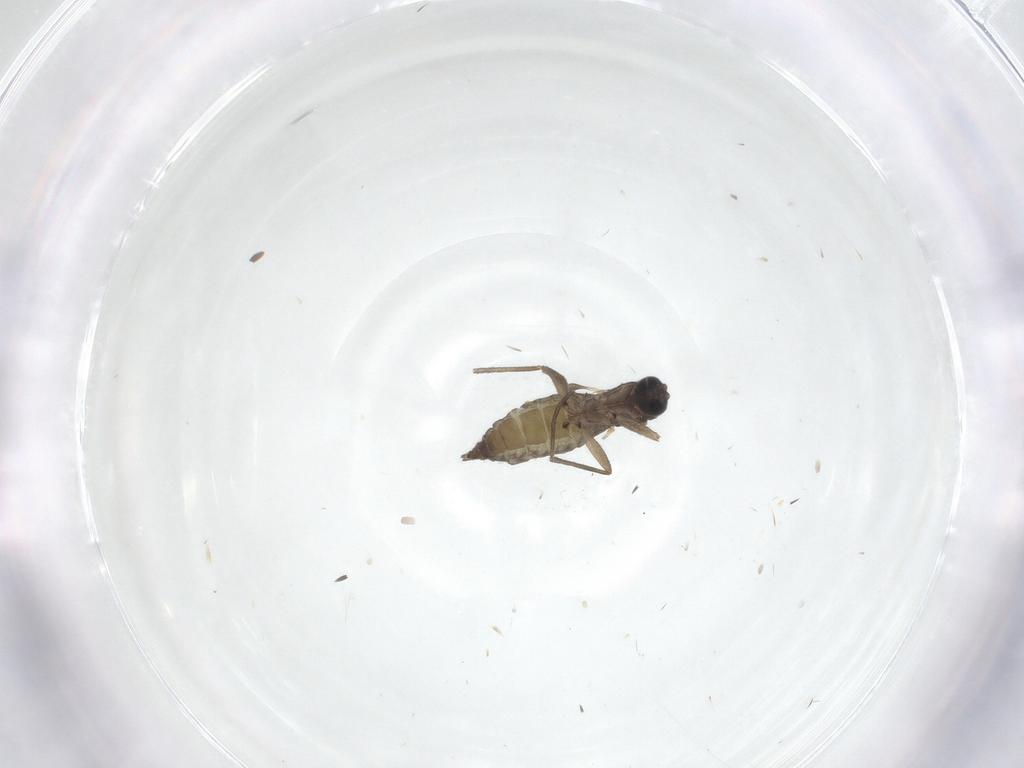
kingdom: Animalia
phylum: Arthropoda
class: Insecta
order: Diptera
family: Sciaridae
